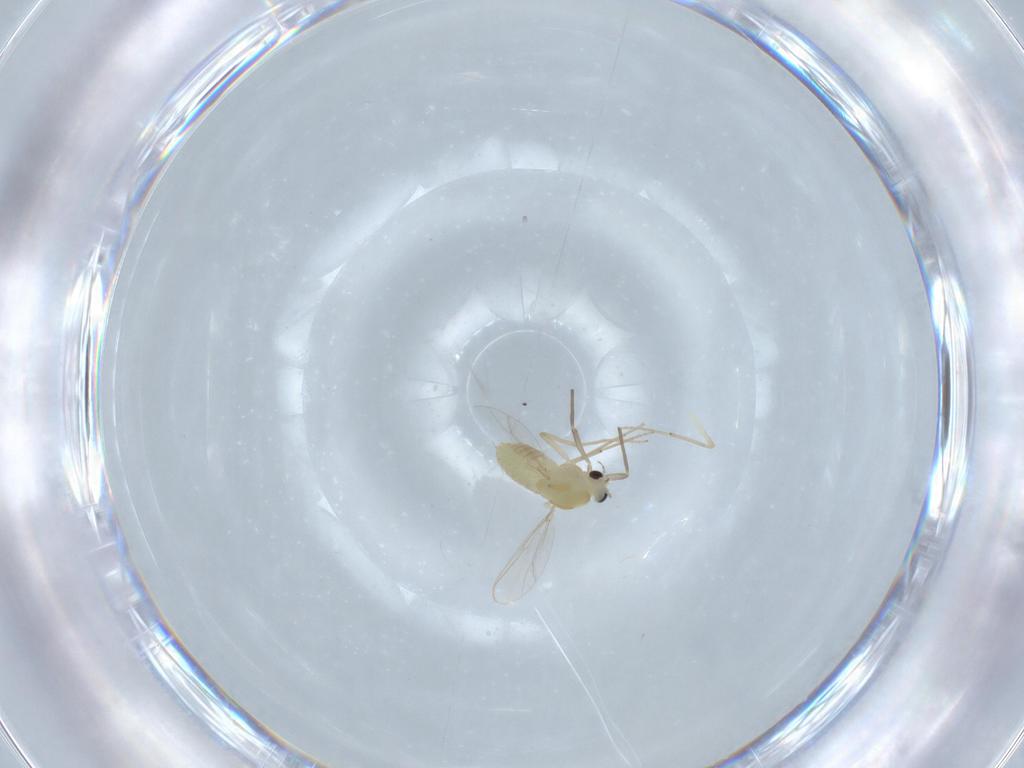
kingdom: Animalia
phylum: Arthropoda
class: Insecta
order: Diptera
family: Chironomidae
